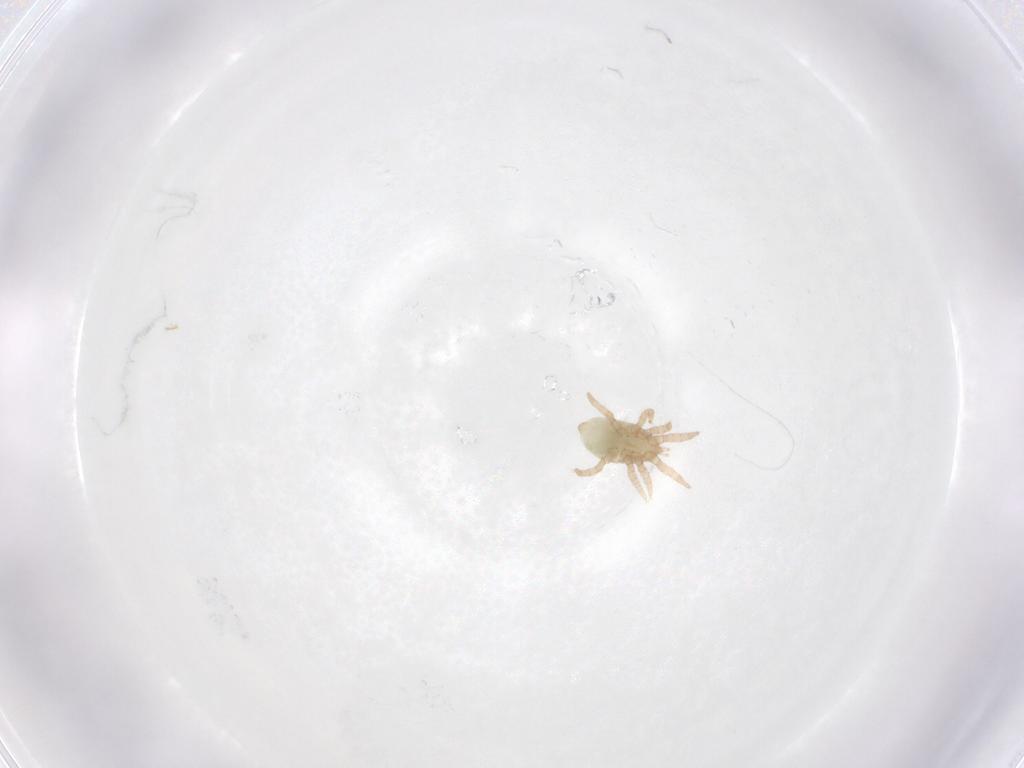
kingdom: Animalia
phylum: Arthropoda
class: Arachnida
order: Mesostigmata
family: Otopheidomenidae
